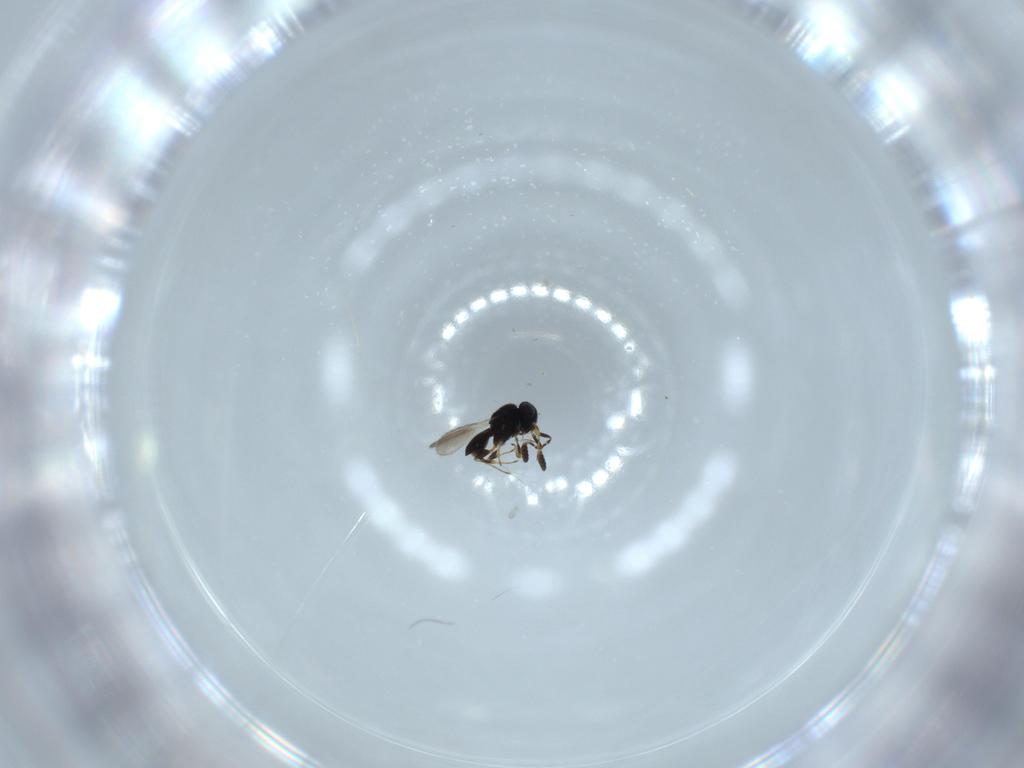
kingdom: Animalia
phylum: Arthropoda
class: Insecta
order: Hymenoptera
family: Scelionidae
